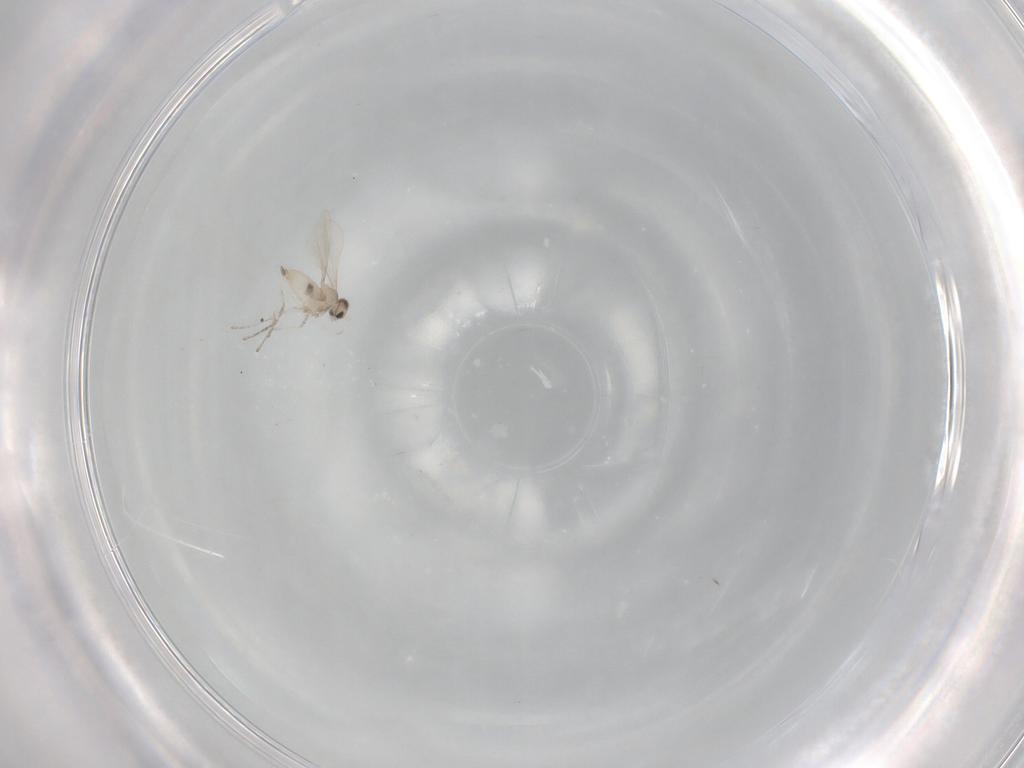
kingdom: Animalia
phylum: Arthropoda
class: Insecta
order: Diptera
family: Cecidomyiidae
